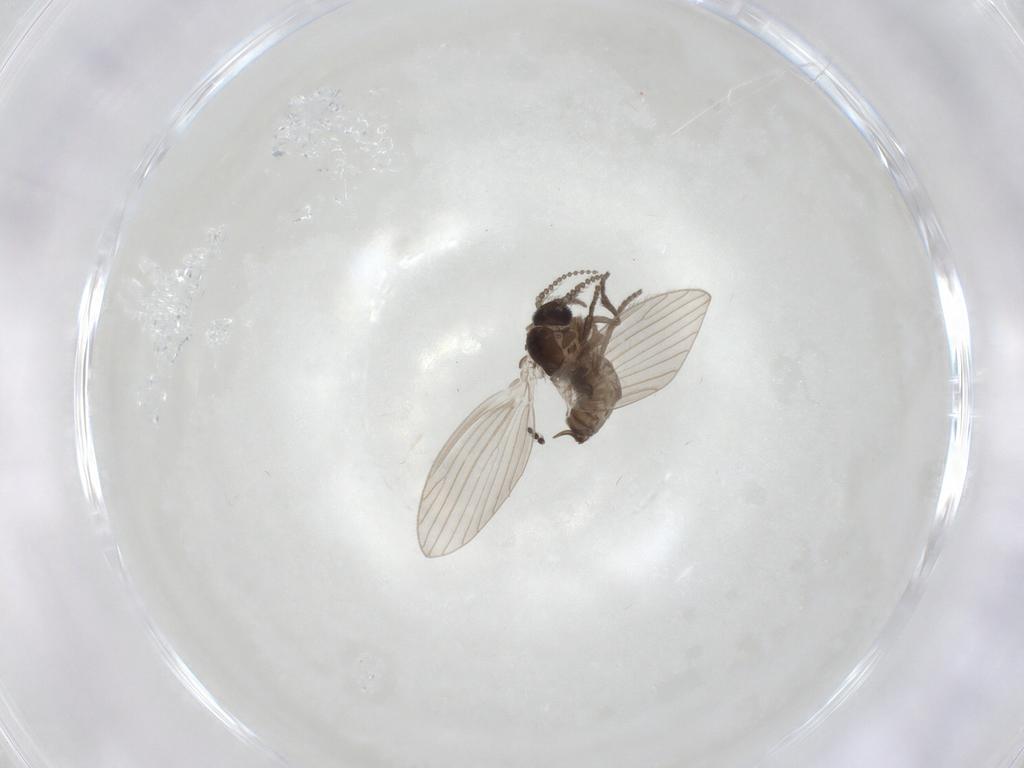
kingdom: Animalia
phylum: Arthropoda
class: Insecta
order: Diptera
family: Psychodidae
